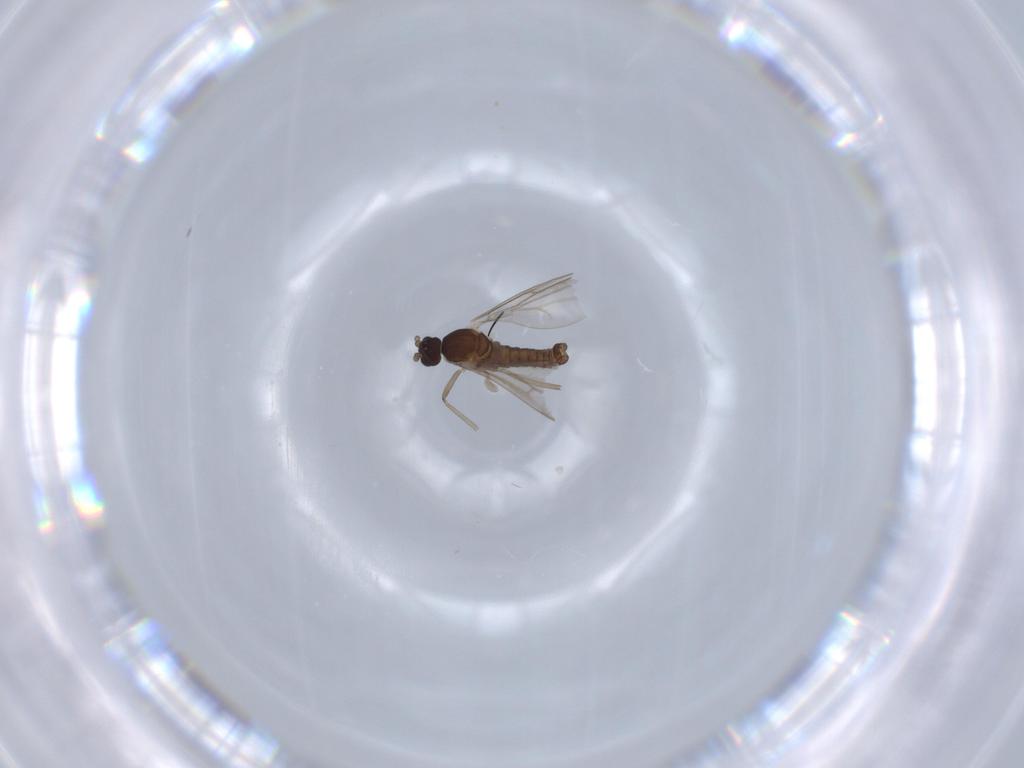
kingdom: Animalia
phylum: Arthropoda
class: Insecta
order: Diptera
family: Cecidomyiidae
